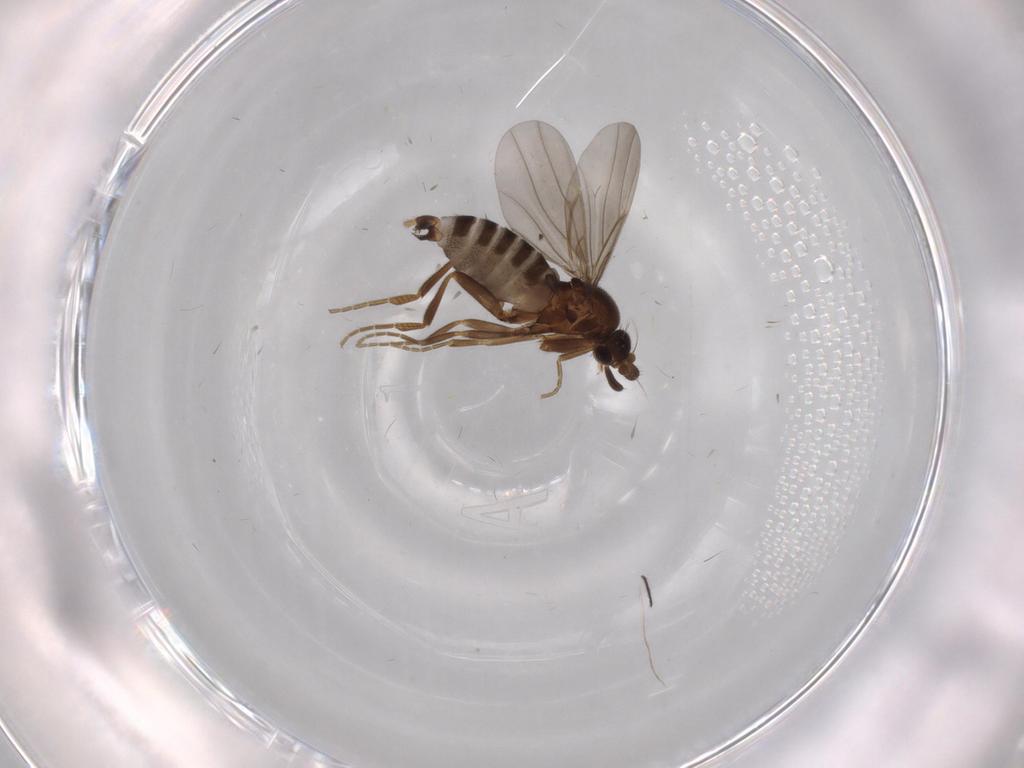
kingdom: Animalia
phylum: Arthropoda
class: Insecta
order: Diptera
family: Phoridae
